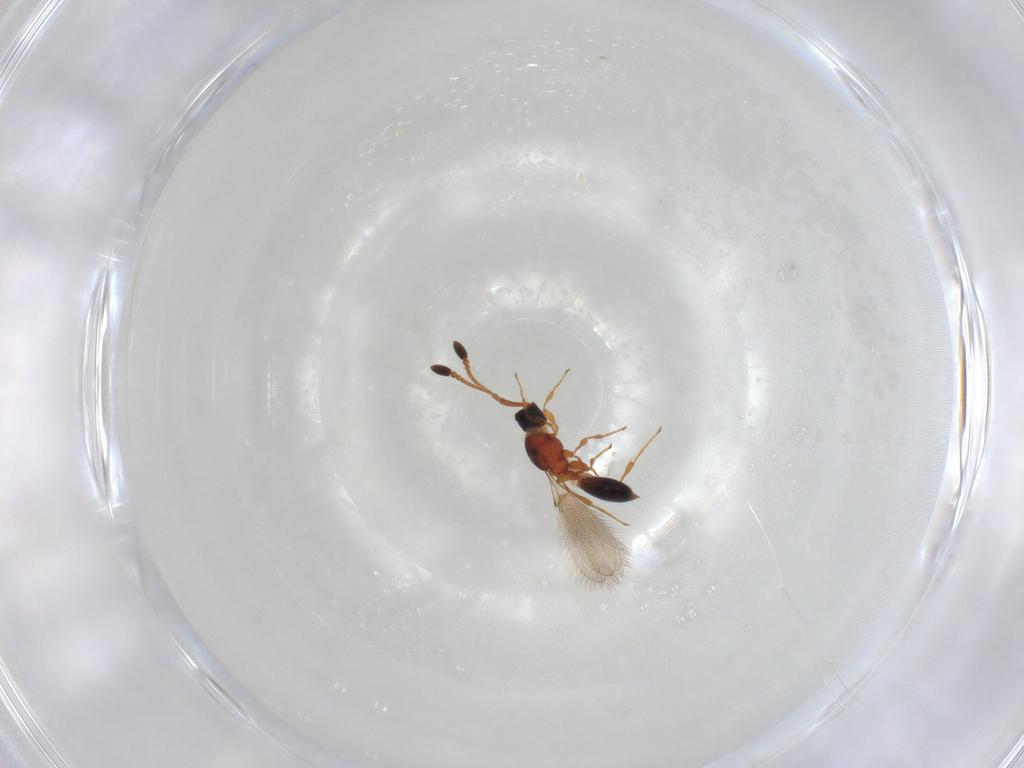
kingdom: Animalia
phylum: Arthropoda
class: Insecta
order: Hymenoptera
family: Diapriidae
